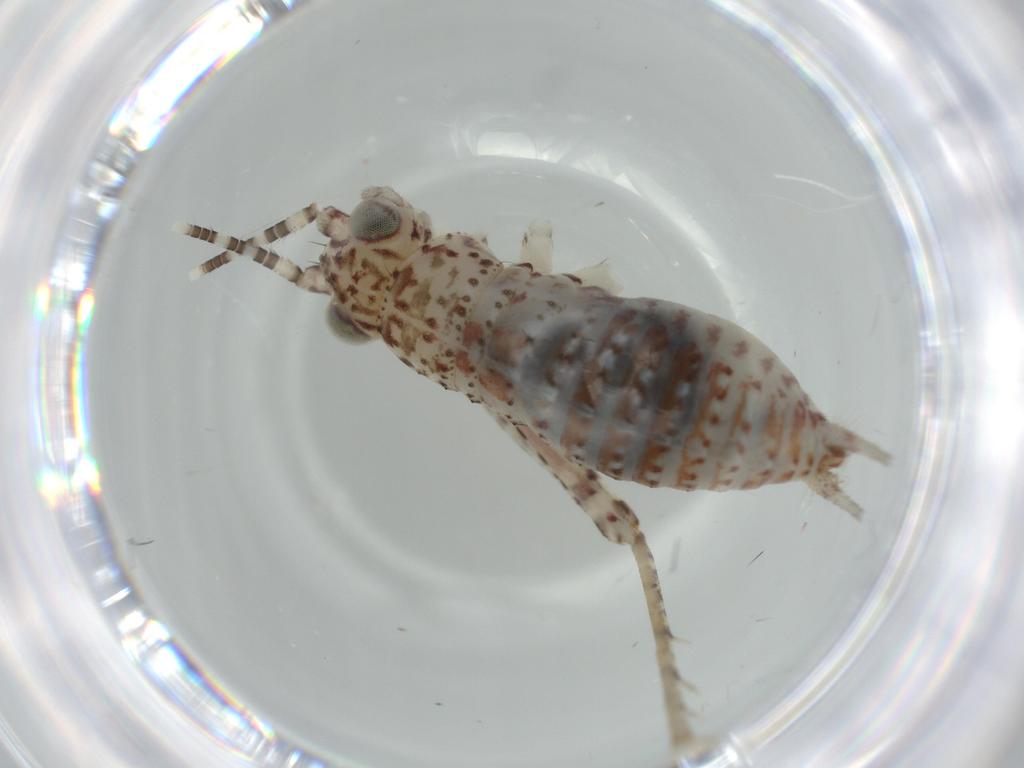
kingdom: Animalia
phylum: Arthropoda
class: Insecta
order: Orthoptera
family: Trigonidiidae
